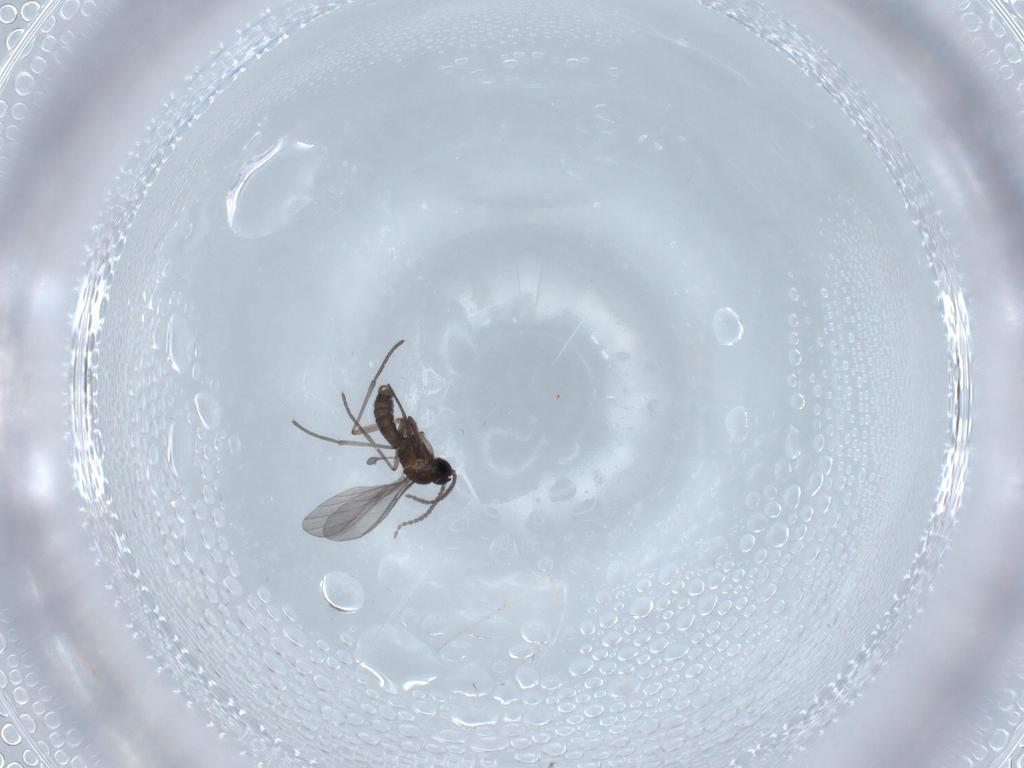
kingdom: Animalia
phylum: Arthropoda
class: Insecta
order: Diptera
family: Sciaridae
